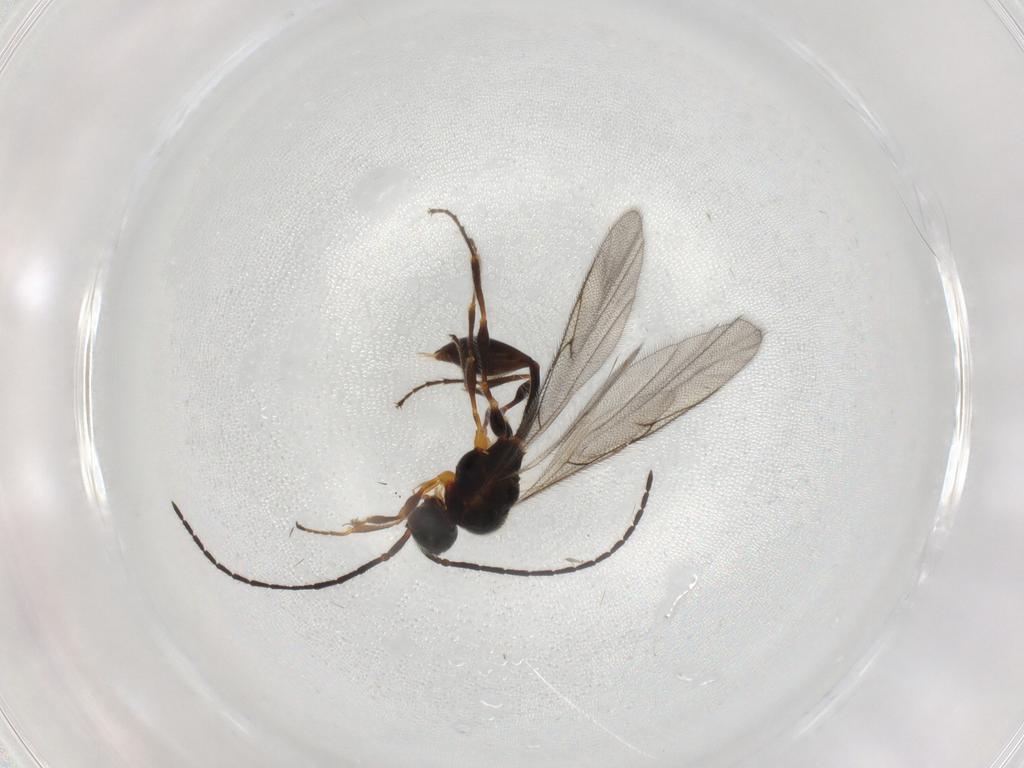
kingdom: Animalia
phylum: Arthropoda
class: Insecta
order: Hymenoptera
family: Diapriidae
